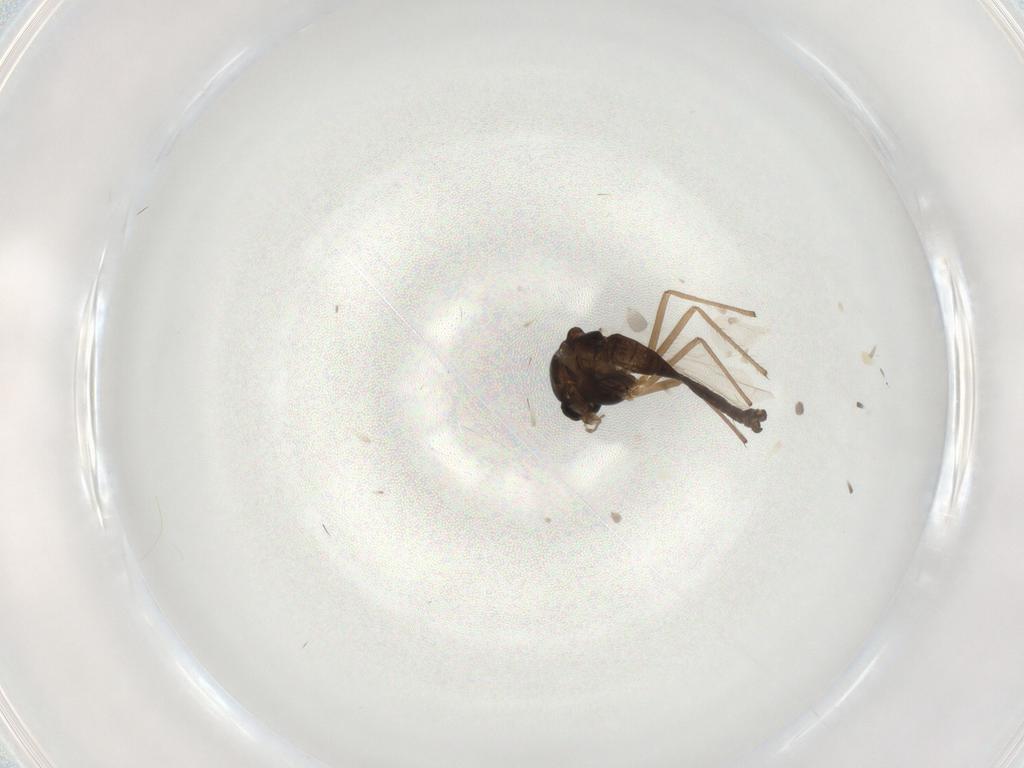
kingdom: Animalia
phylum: Arthropoda
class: Insecta
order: Diptera
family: Chironomidae
